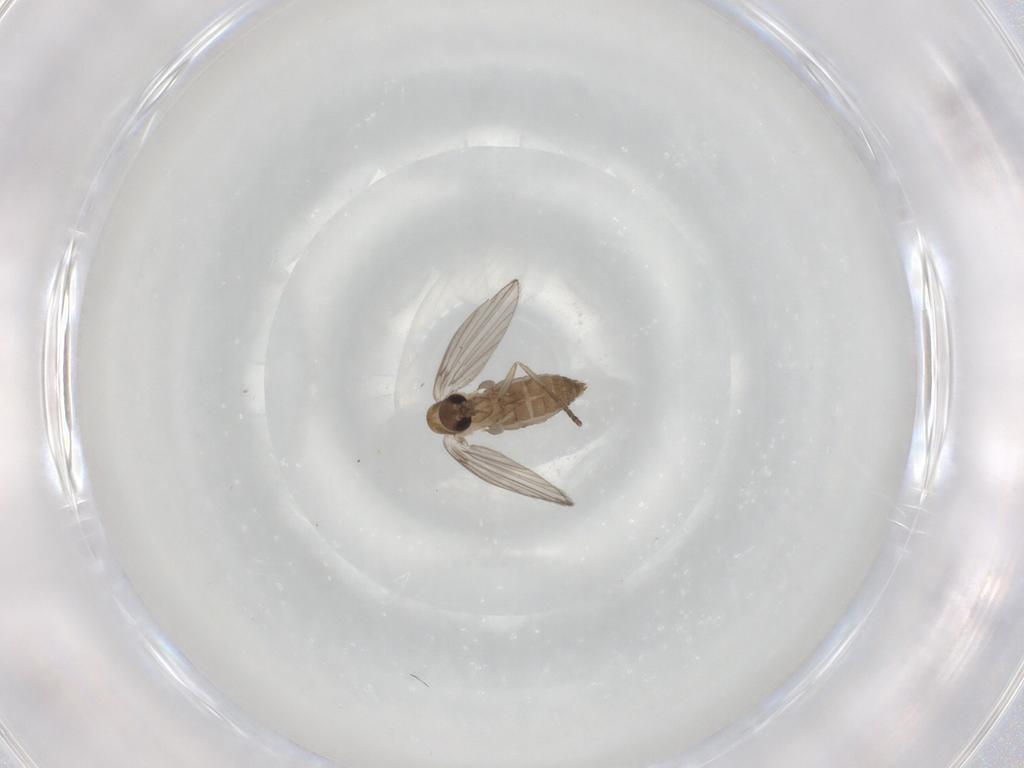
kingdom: Animalia
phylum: Arthropoda
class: Insecta
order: Diptera
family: Psychodidae
